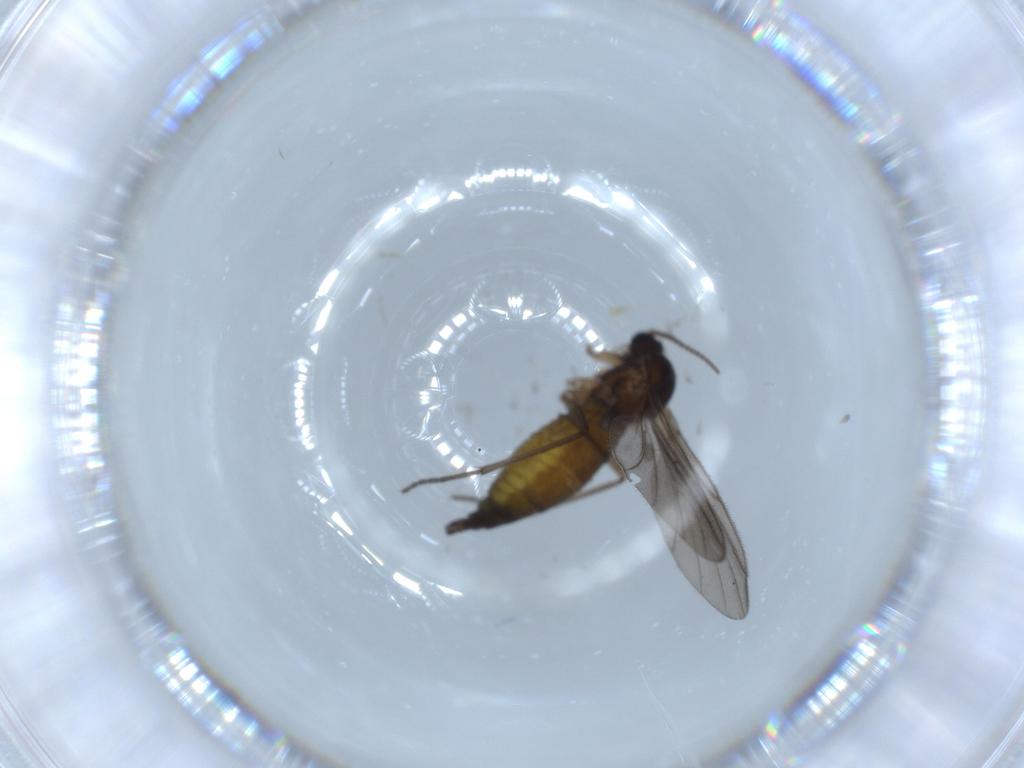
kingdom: Animalia
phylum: Arthropoda
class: Insecta
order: Diptera
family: Sciaridae
